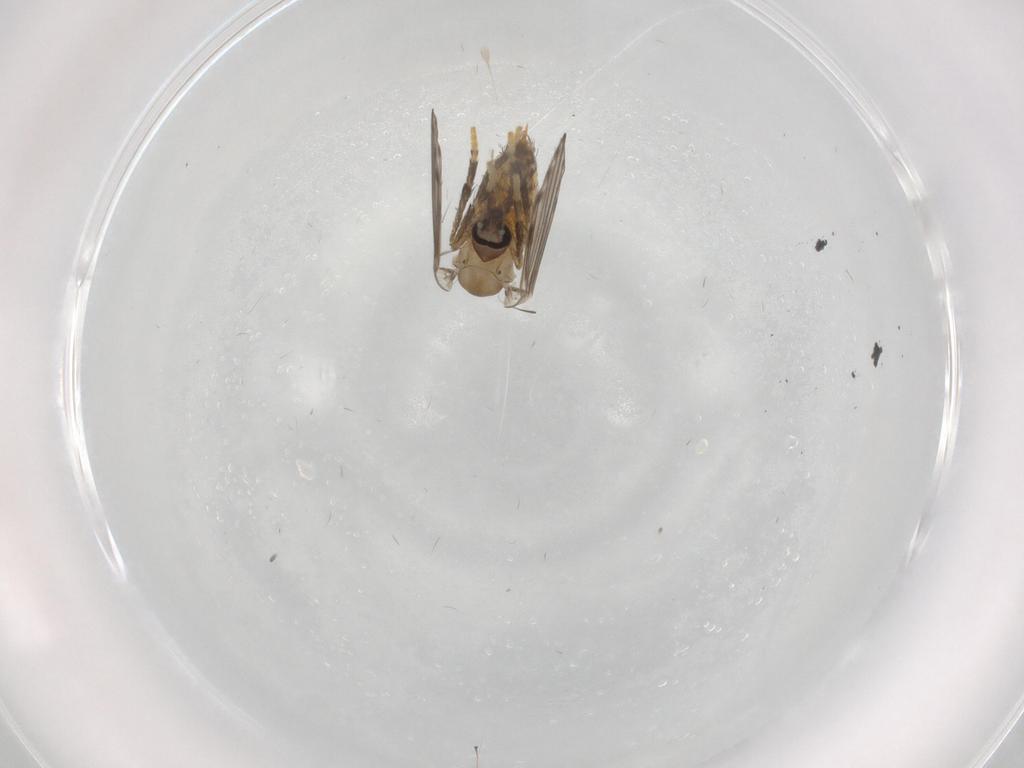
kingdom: Animalia
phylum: Arthropoda
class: Insecta
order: Diptera
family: Psychodidae
